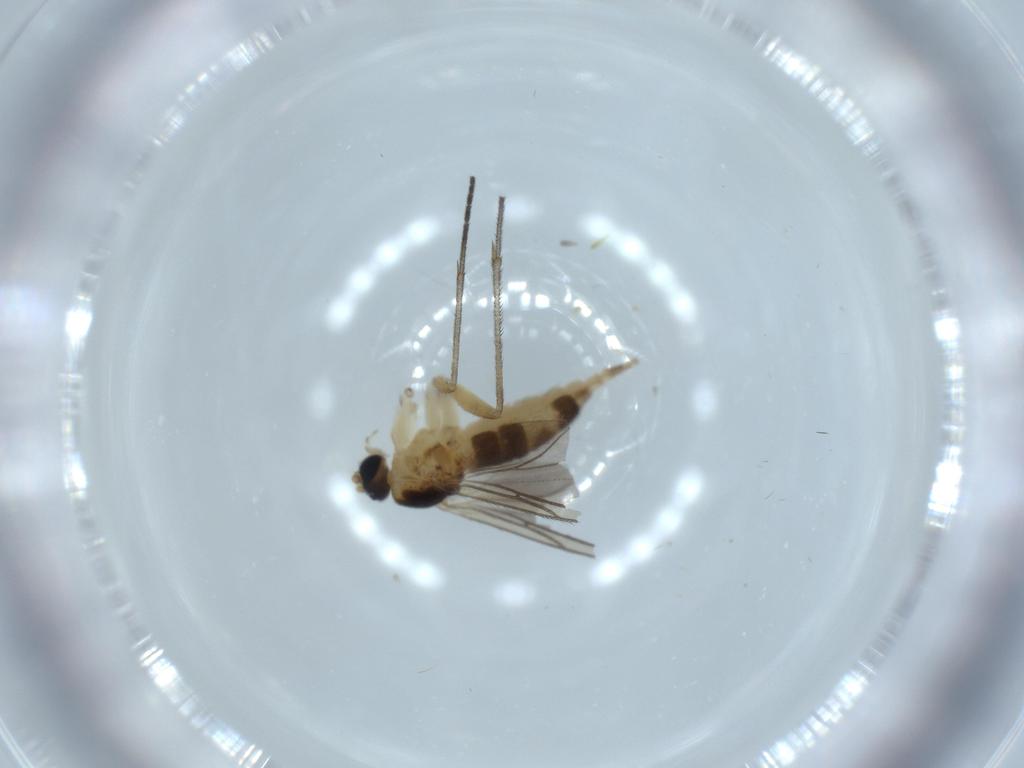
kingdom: Animalia
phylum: Arthropoda
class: Insecta
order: Diptera
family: Sciaridae
